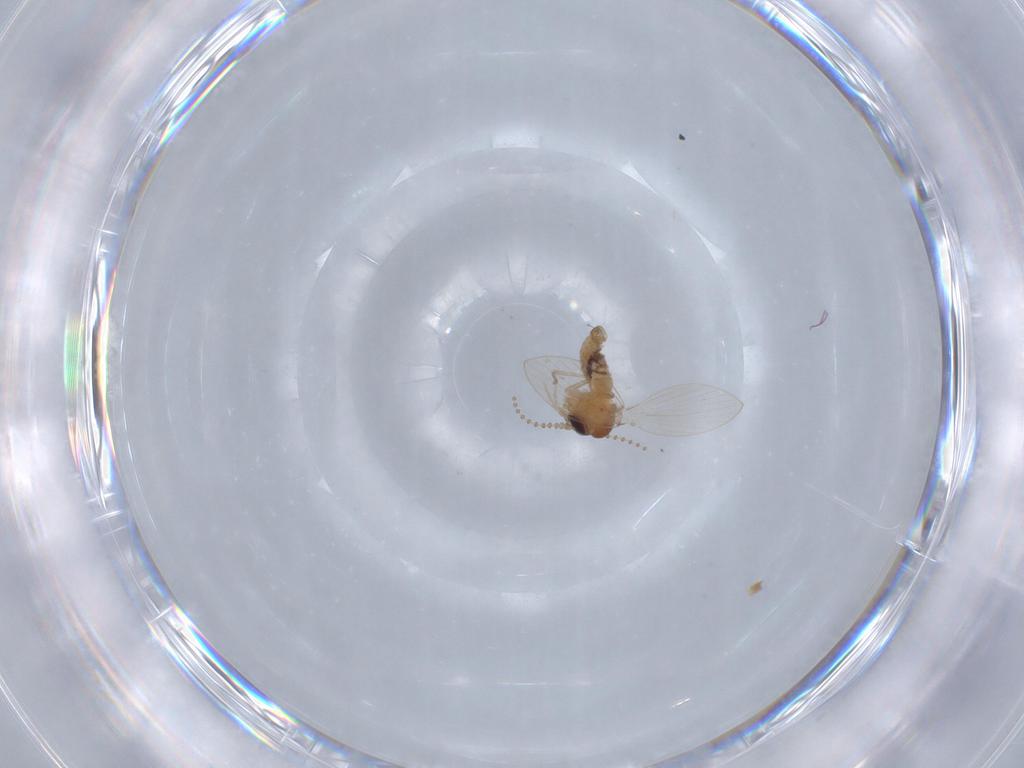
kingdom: Animalia
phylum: Arthropoda
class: Insecta
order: Diptera
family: Psychodidae
